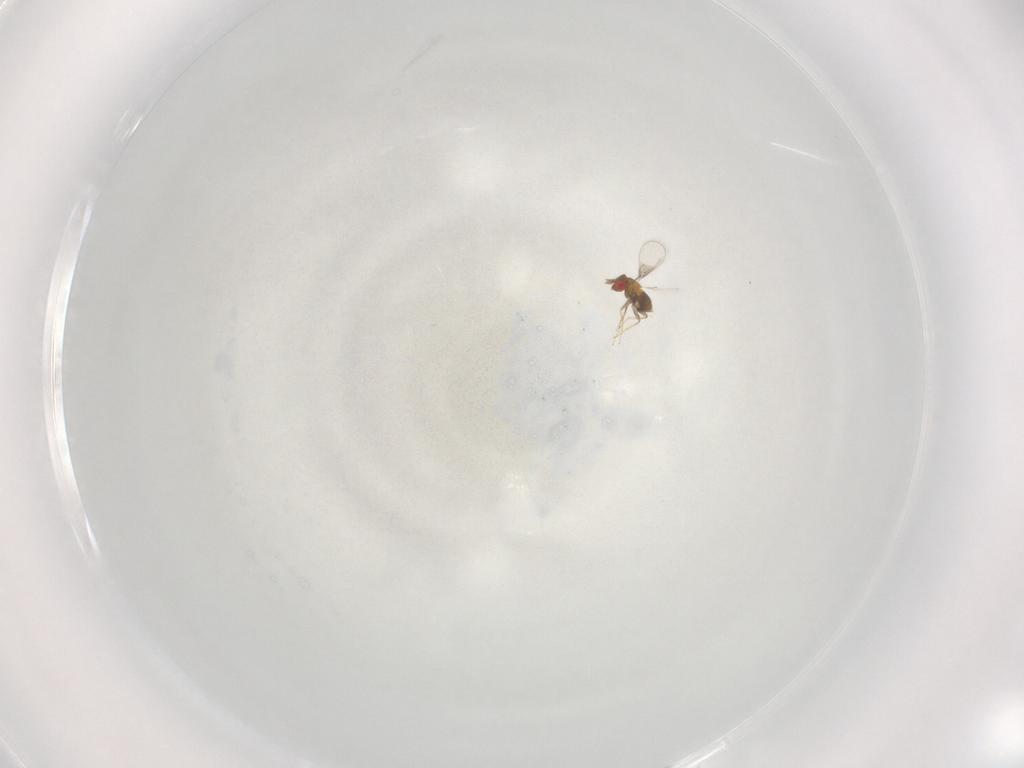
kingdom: Animalia
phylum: Arthropoda
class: Insecta
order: Hymenoptera
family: Trichogrammatidae
